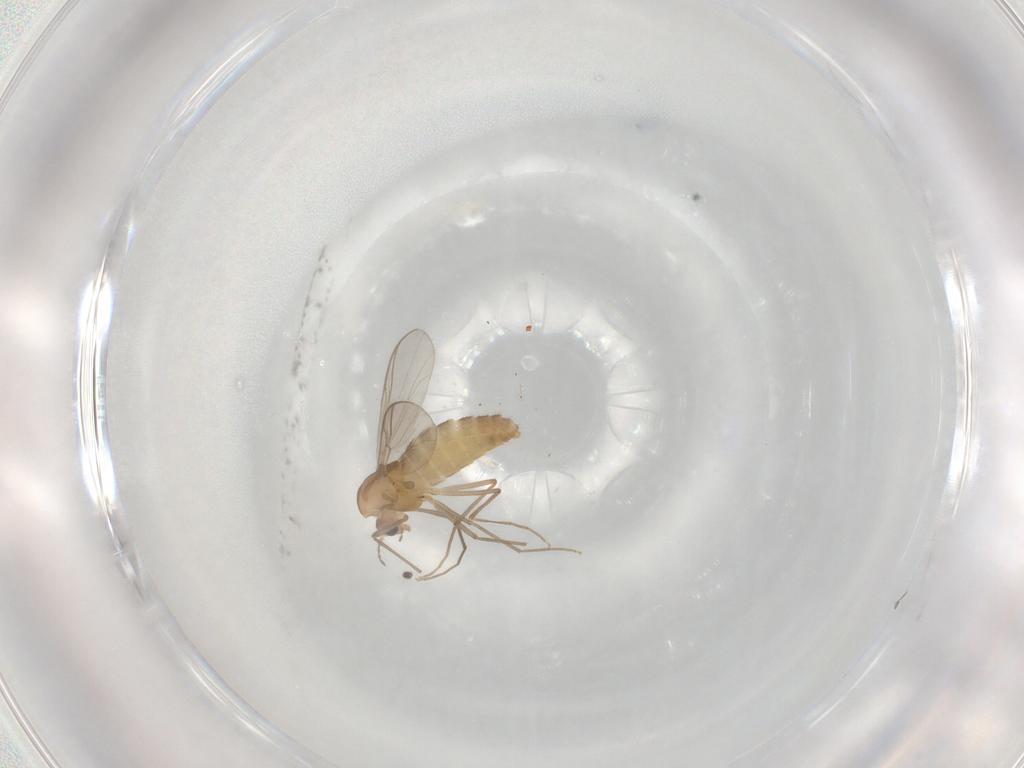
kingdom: Animalia
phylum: Arthropoda
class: Insecta
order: Diptera
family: Chironomidae
